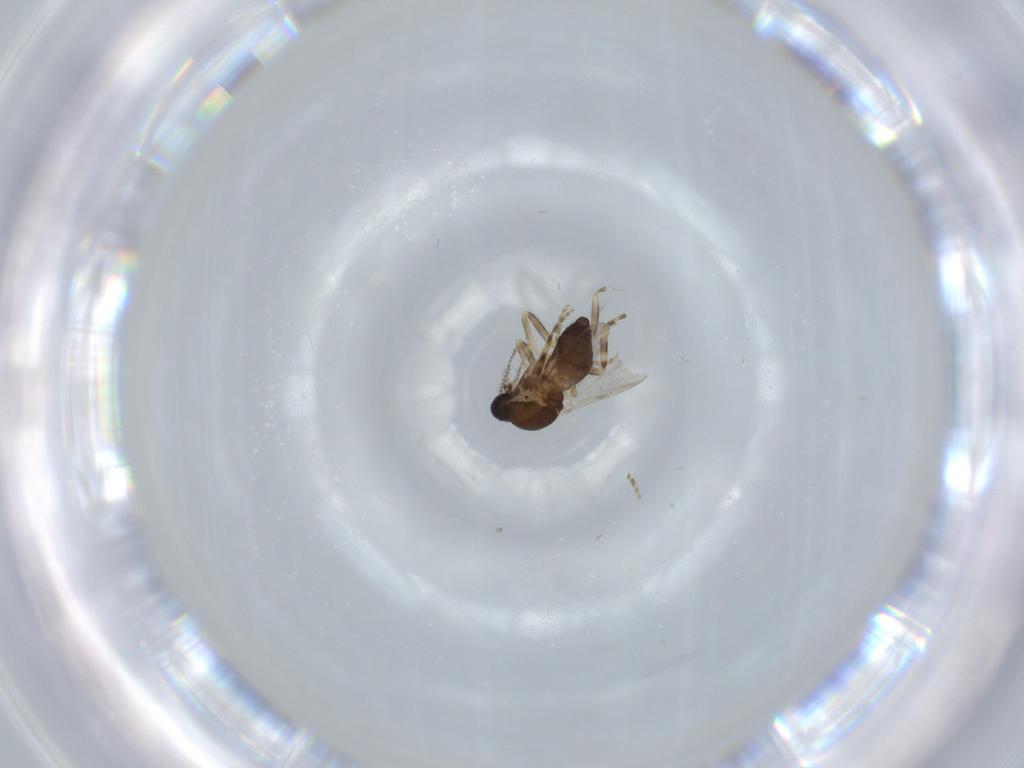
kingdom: Animalia
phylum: Arthropoda
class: Insecta
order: Diptera
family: Ceratopogonidae
